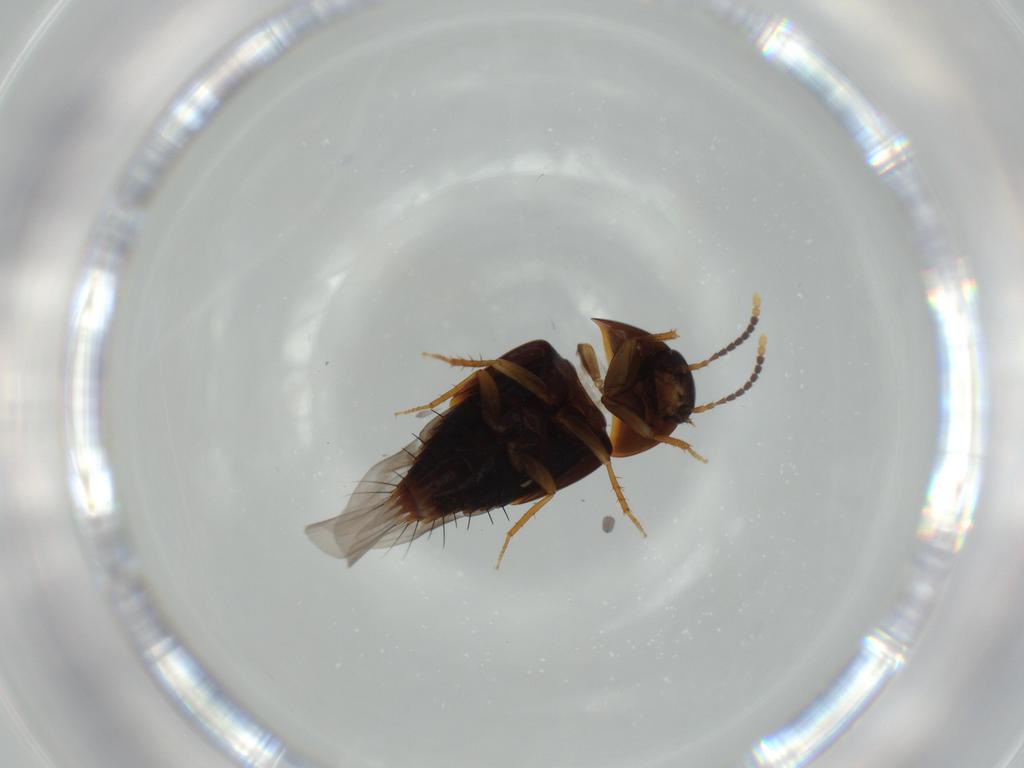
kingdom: Animalia
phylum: Arthropoda
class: Insecta
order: Coleoptera
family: Staphylinidae
